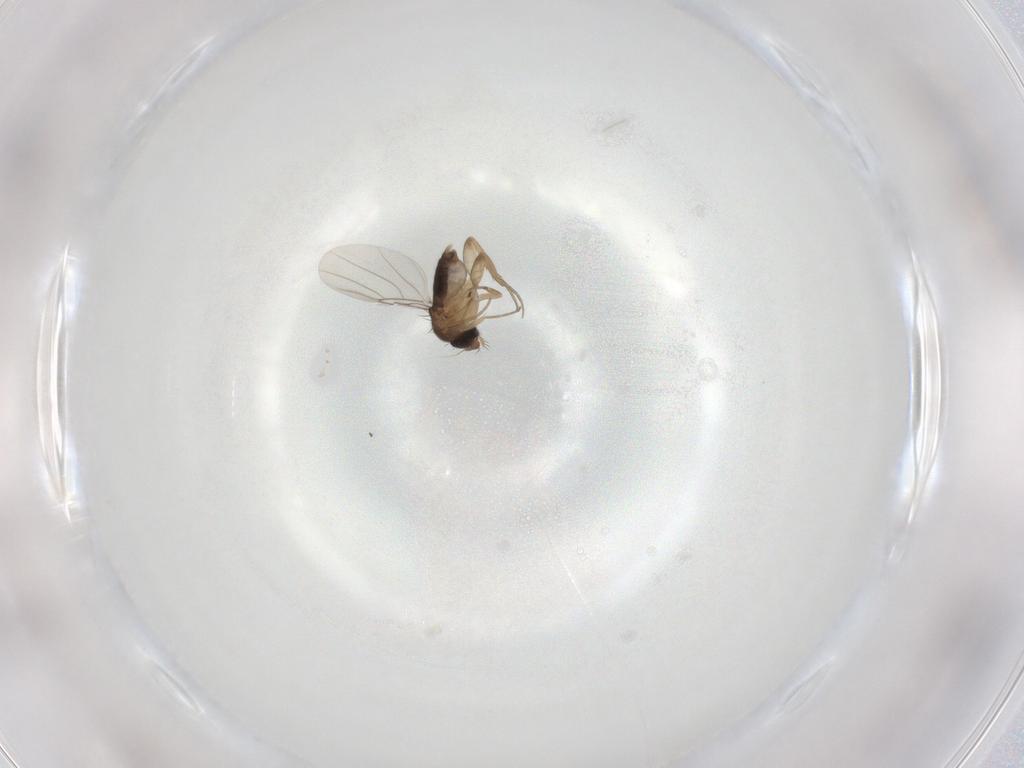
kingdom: Animalia
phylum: Arthropoda
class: Insecta
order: Diptera
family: Phoridae
